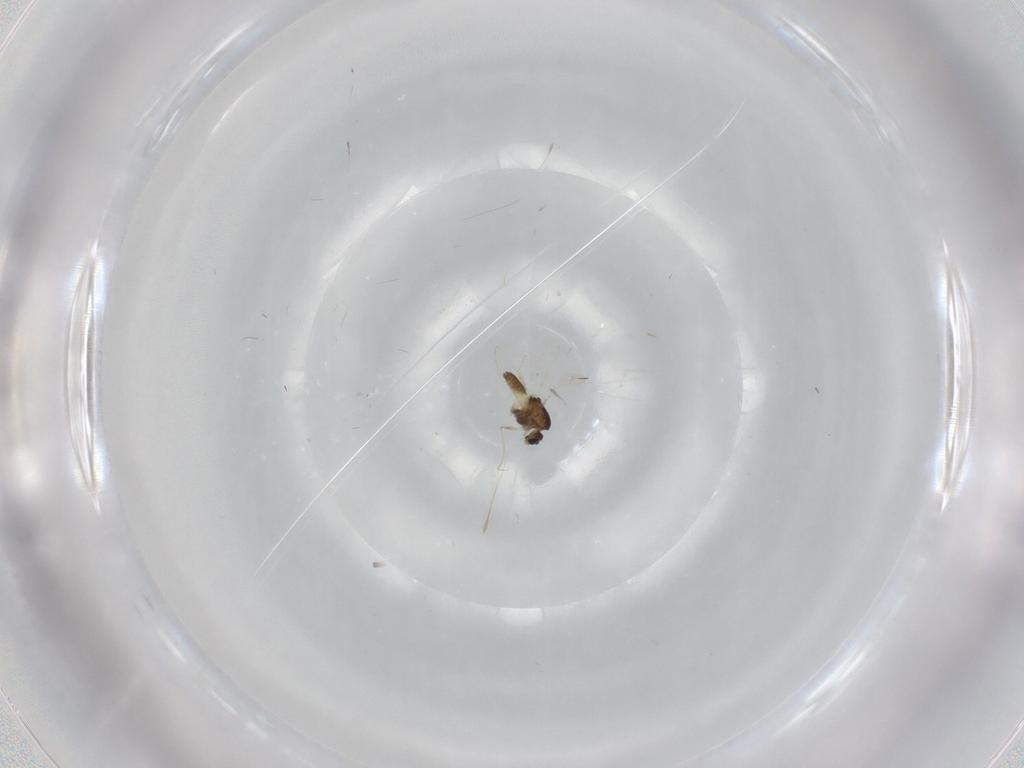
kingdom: Animalia
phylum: Arthropoda
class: Insecta
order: Diptera
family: Chironomidae
